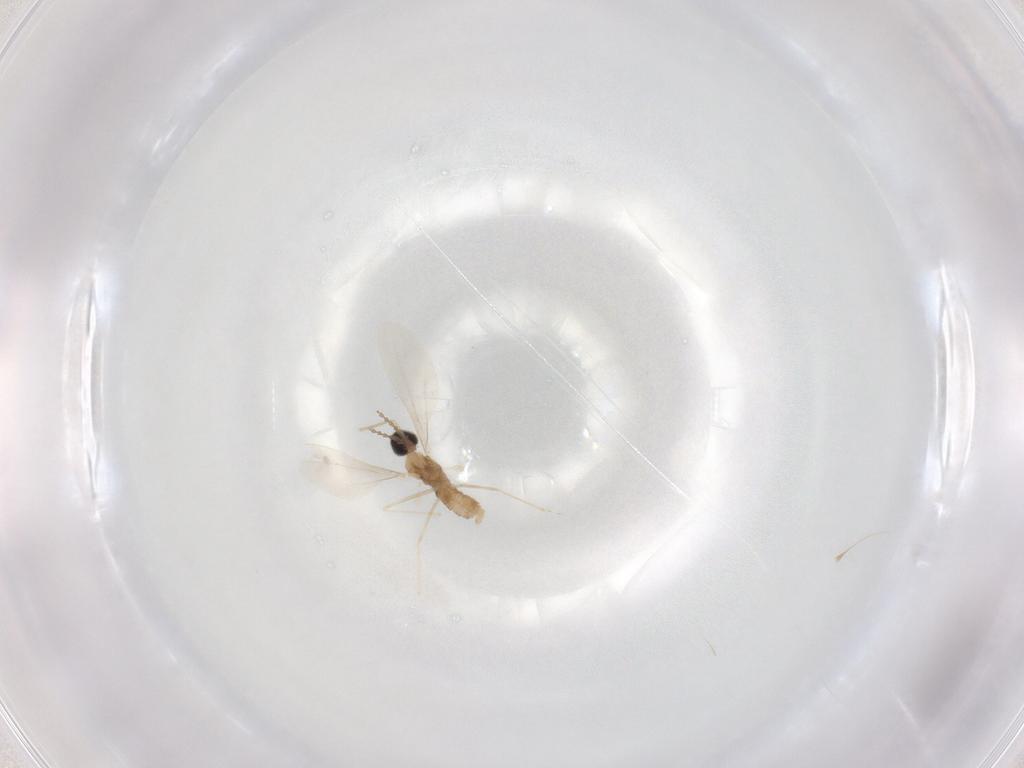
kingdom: Animalia
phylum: Arthropoda
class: Insecta
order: Diptera
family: Cecidomyiidae
